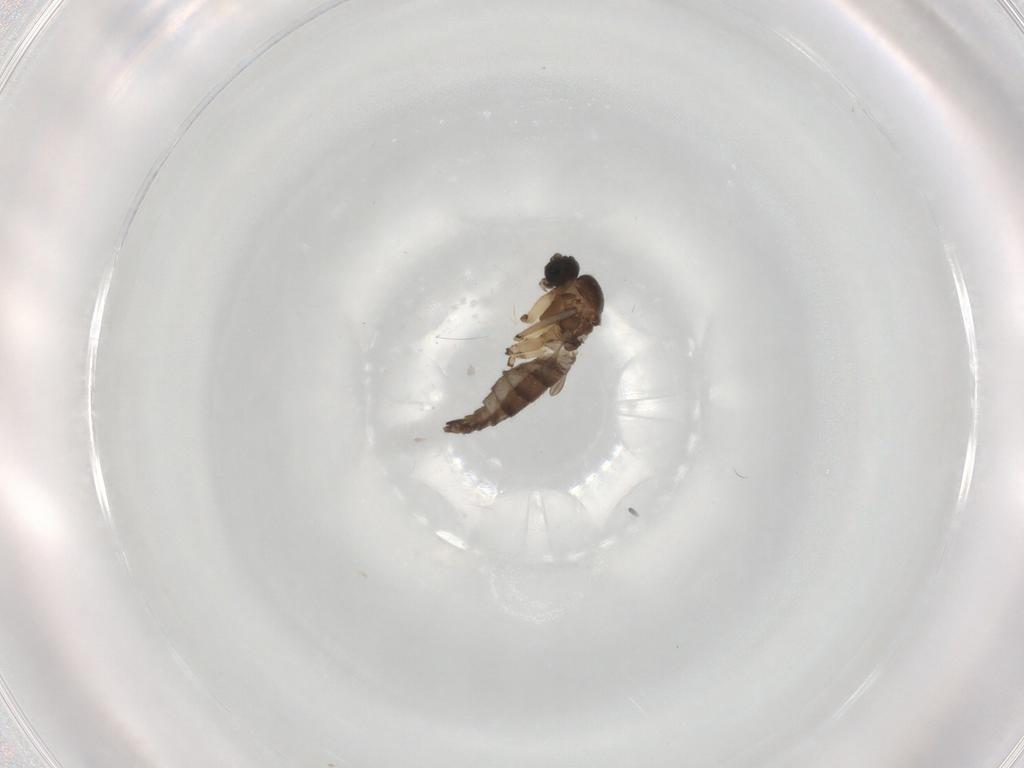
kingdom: Animalia
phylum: Arthropoda
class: Insecta
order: Diptera
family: Sciaridae
